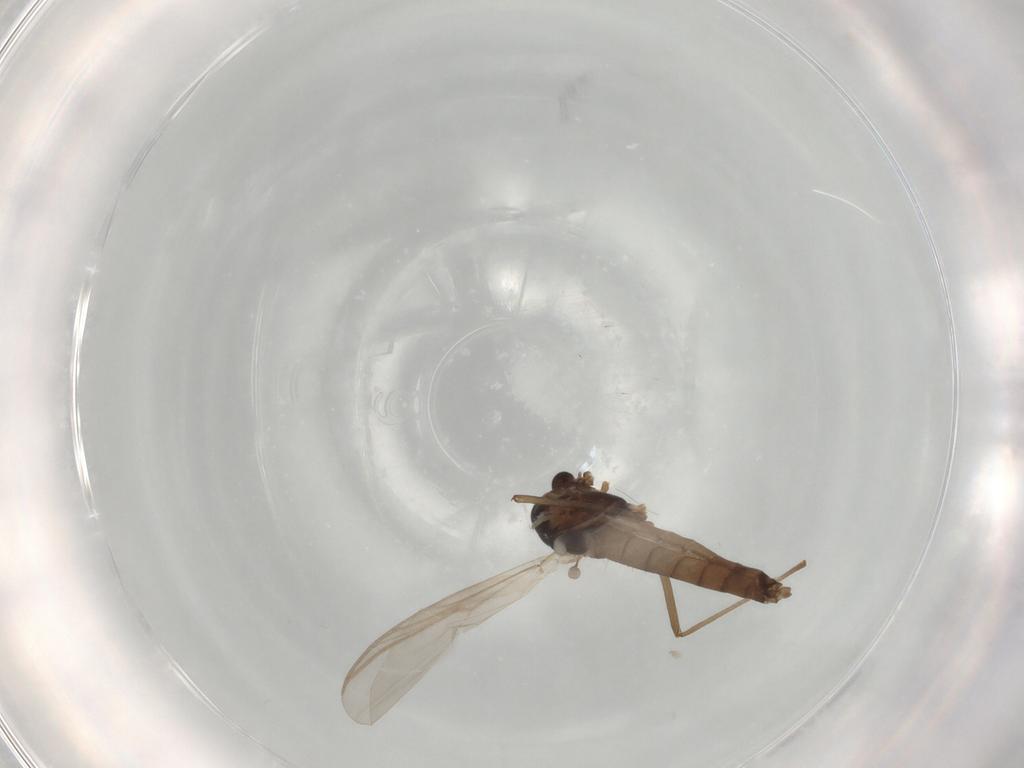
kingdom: Animalia
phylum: Arthropoda
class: Insecta
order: Diptera
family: Chironomidae
